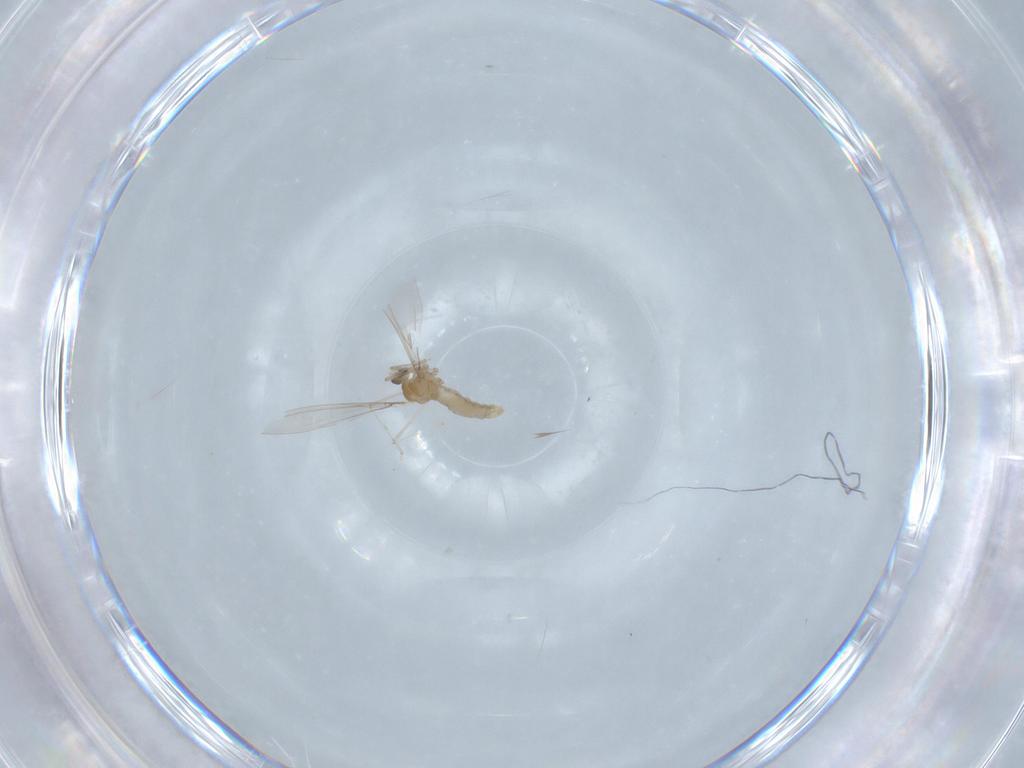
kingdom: Animalia
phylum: Arthropoda
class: Insecta
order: Diptera
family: Cecidomyiidae
